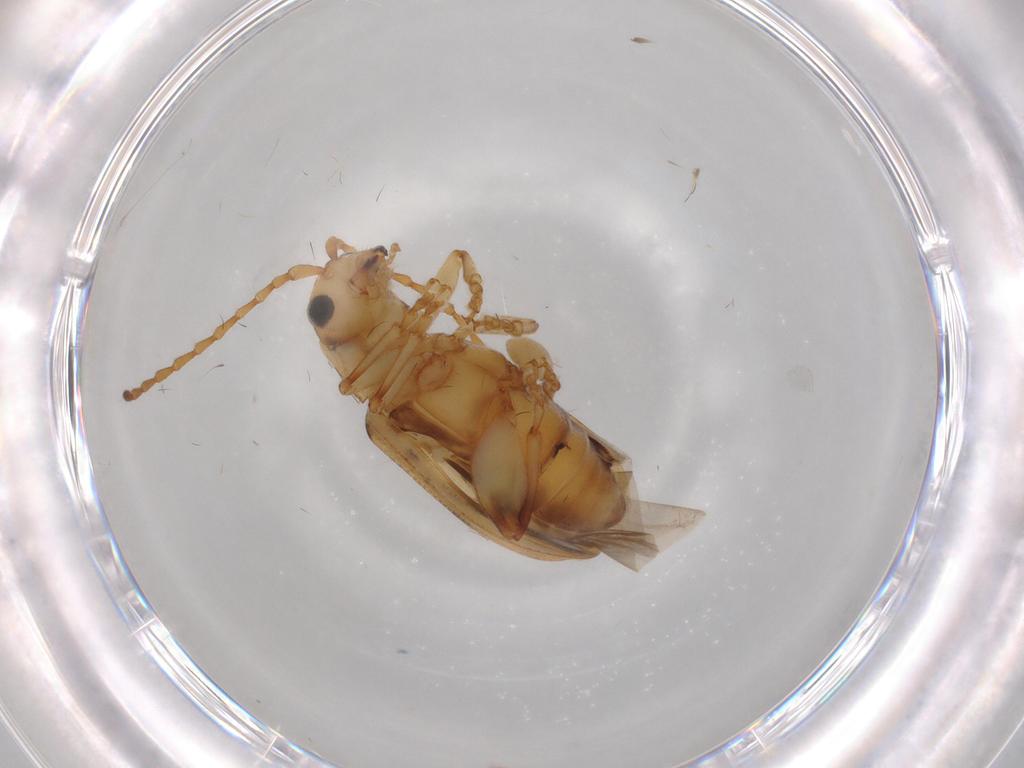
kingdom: Animalia
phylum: Arthropoda
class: Insecta
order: Coleoptera
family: Chrysomelidae
